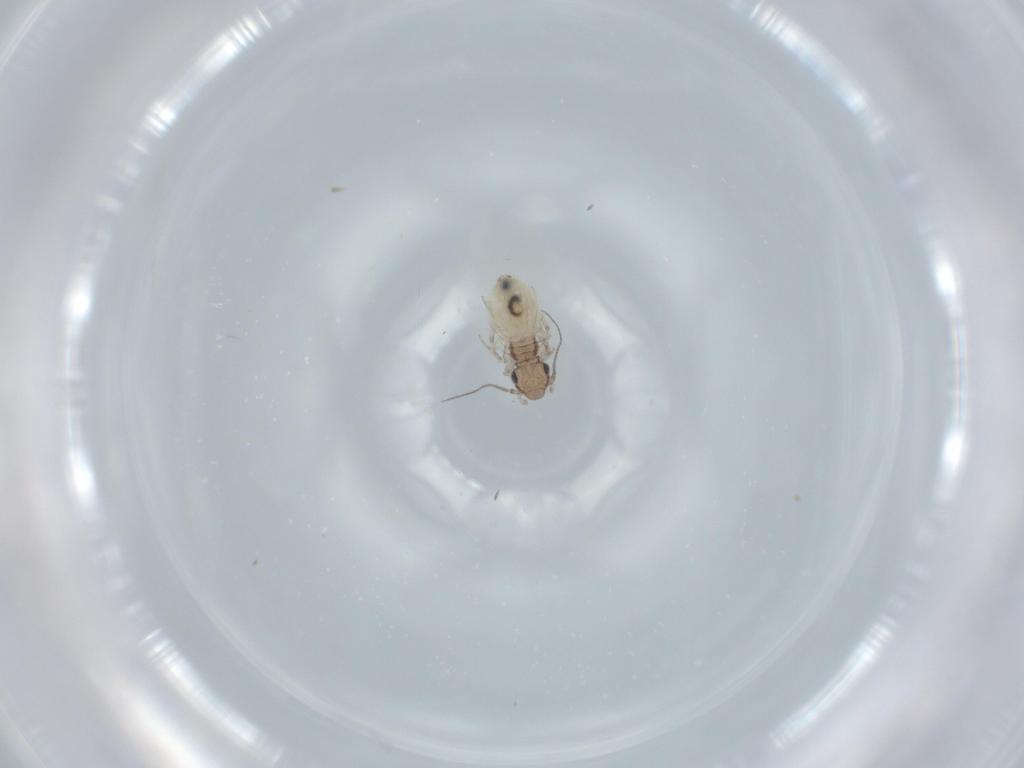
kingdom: Animalia
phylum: Arthropoda
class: Insecta
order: Psocodea
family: Lepidopsocidae
